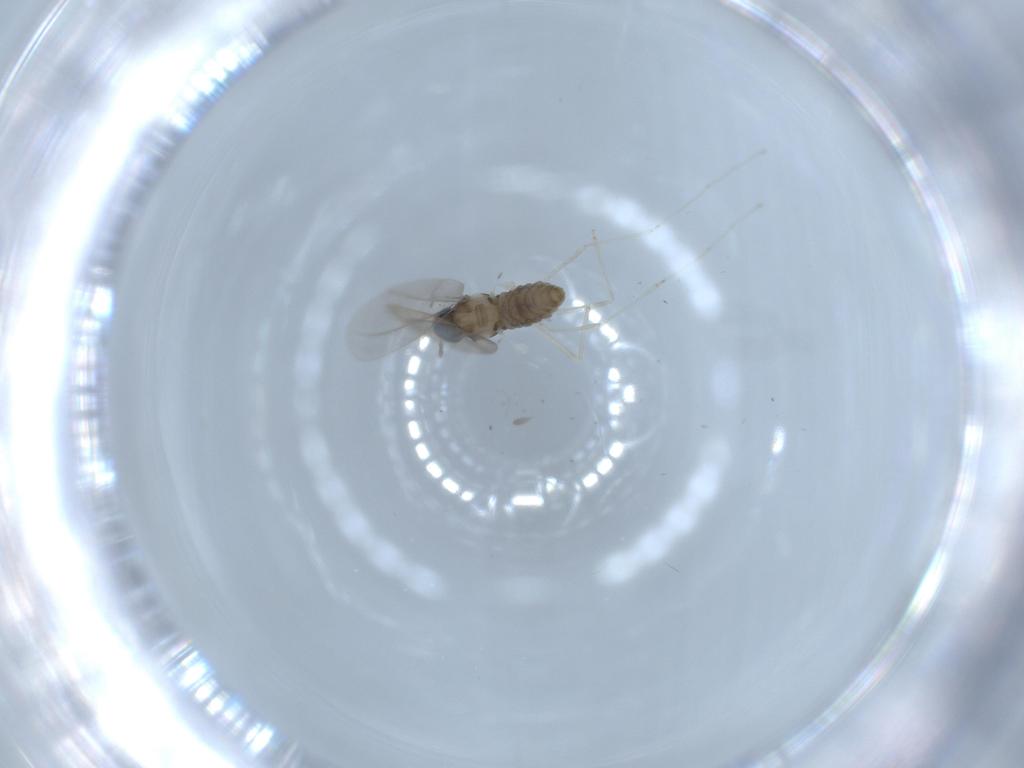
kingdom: Animalia
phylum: Arthropoda
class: Insecta
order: Diptera
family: Cecidomyiidae
